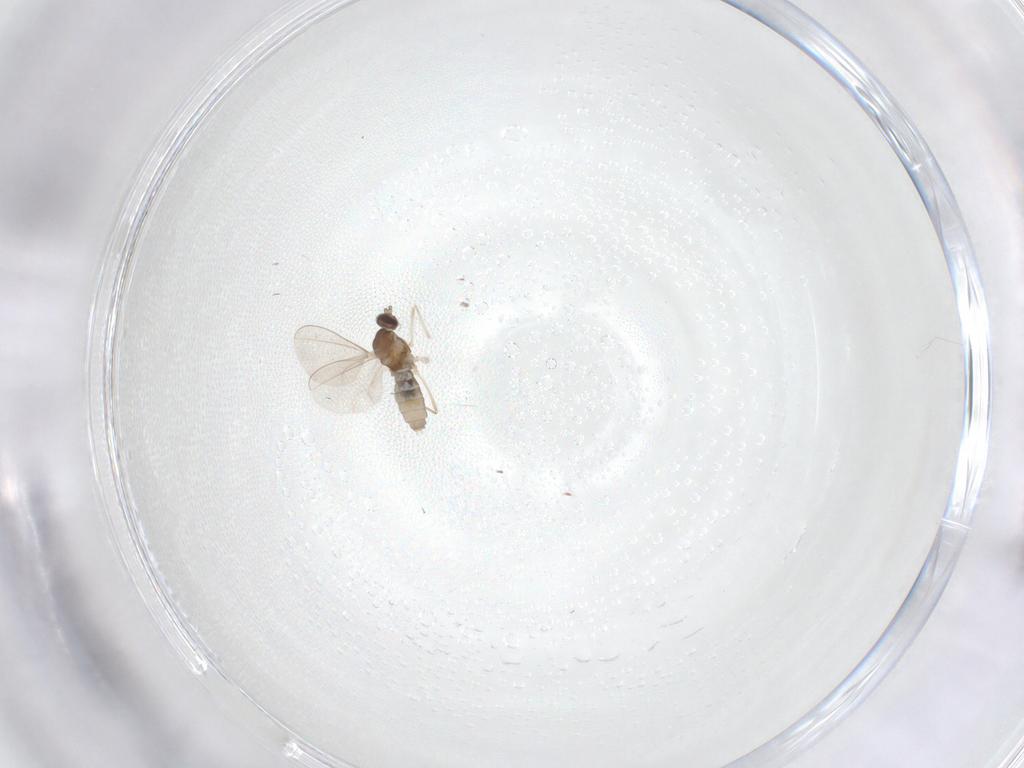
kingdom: Animalia
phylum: Arthropoda
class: Insecta
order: Diptera
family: Cecidomyiidae
